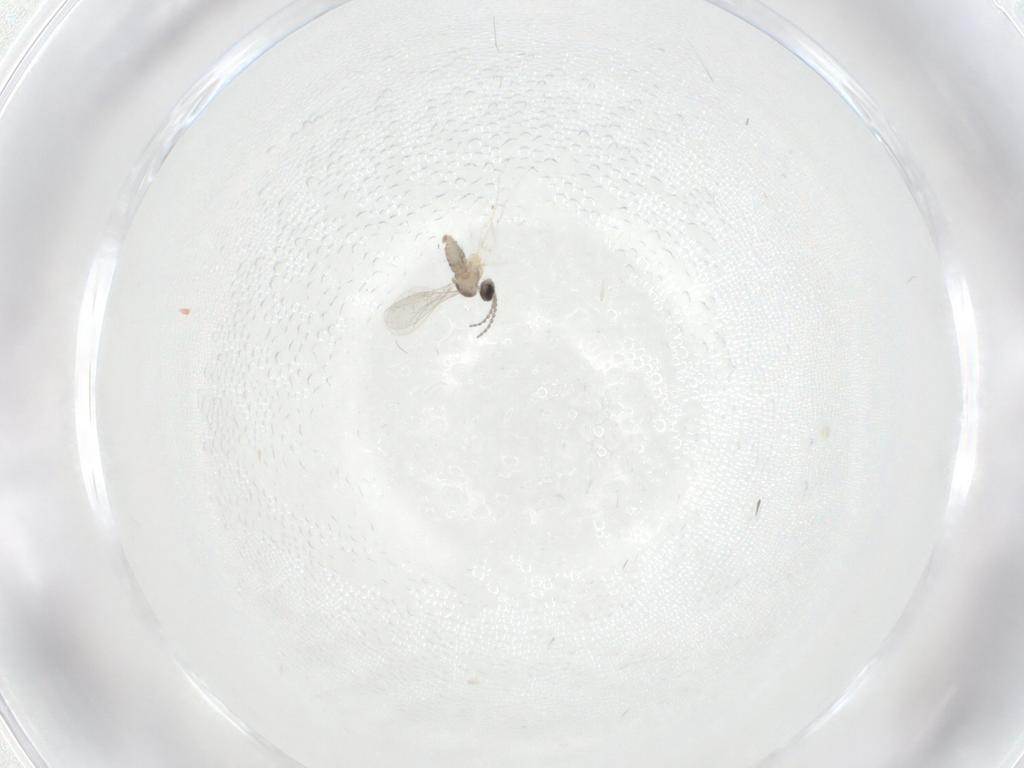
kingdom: Animalia
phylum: Arthropoda
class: Insecta
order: Diptera
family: Cecidomyiidae
